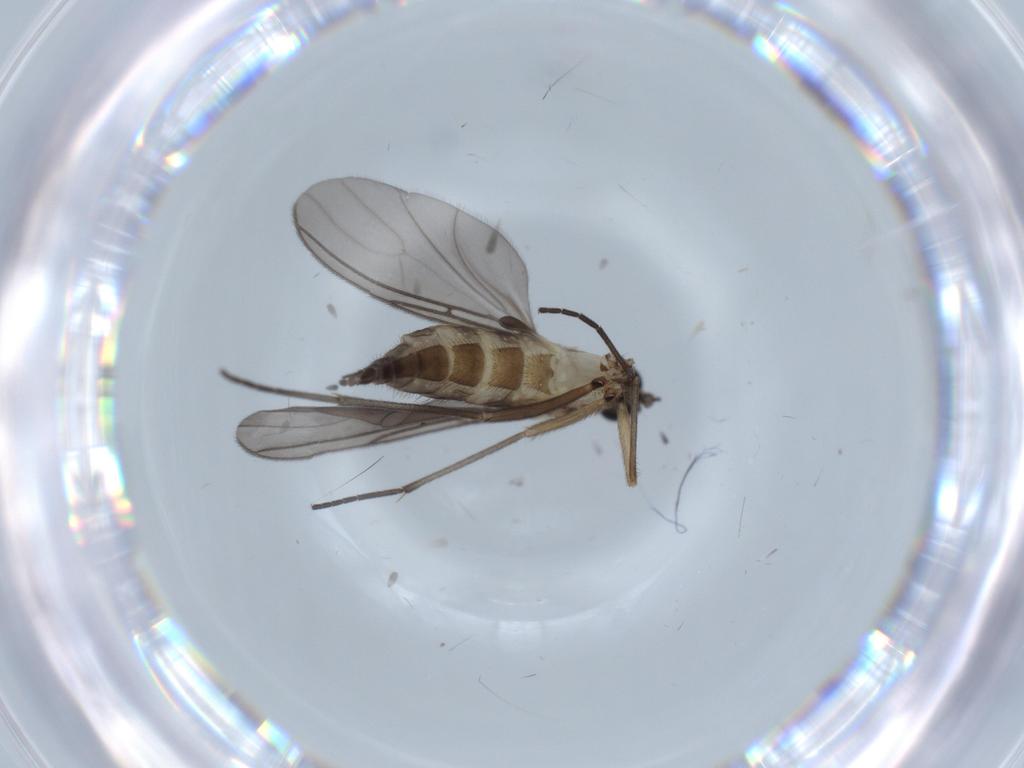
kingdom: Animalia
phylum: Arthropoda
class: Insecta
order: Diptera
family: Sciaridae
